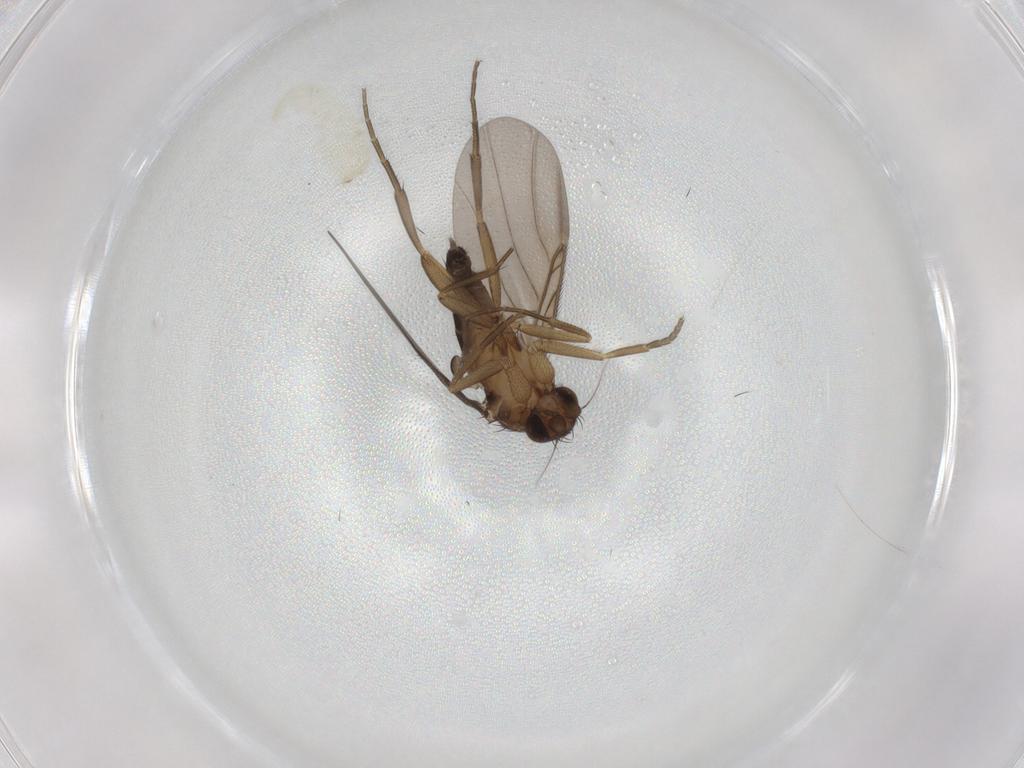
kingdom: Animalia
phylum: Arthropoda
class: Insecta
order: Diptera
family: Phoridae
